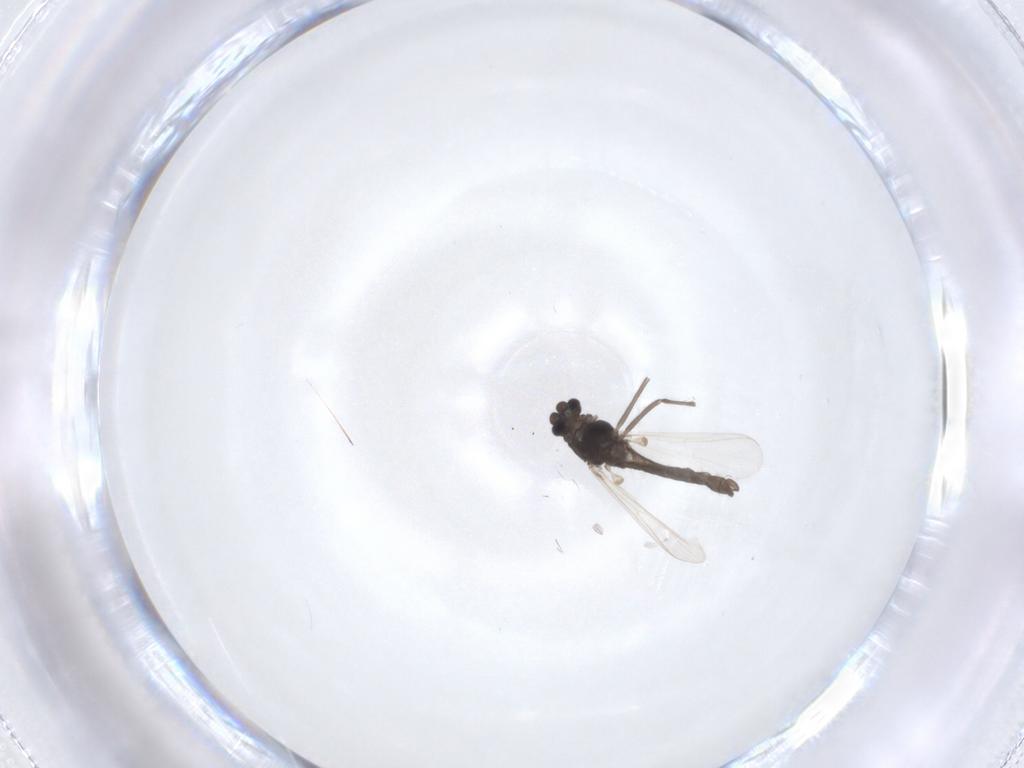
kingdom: Animalia
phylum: Arthropoda
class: Insecta
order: Diptera
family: Chironomidae
